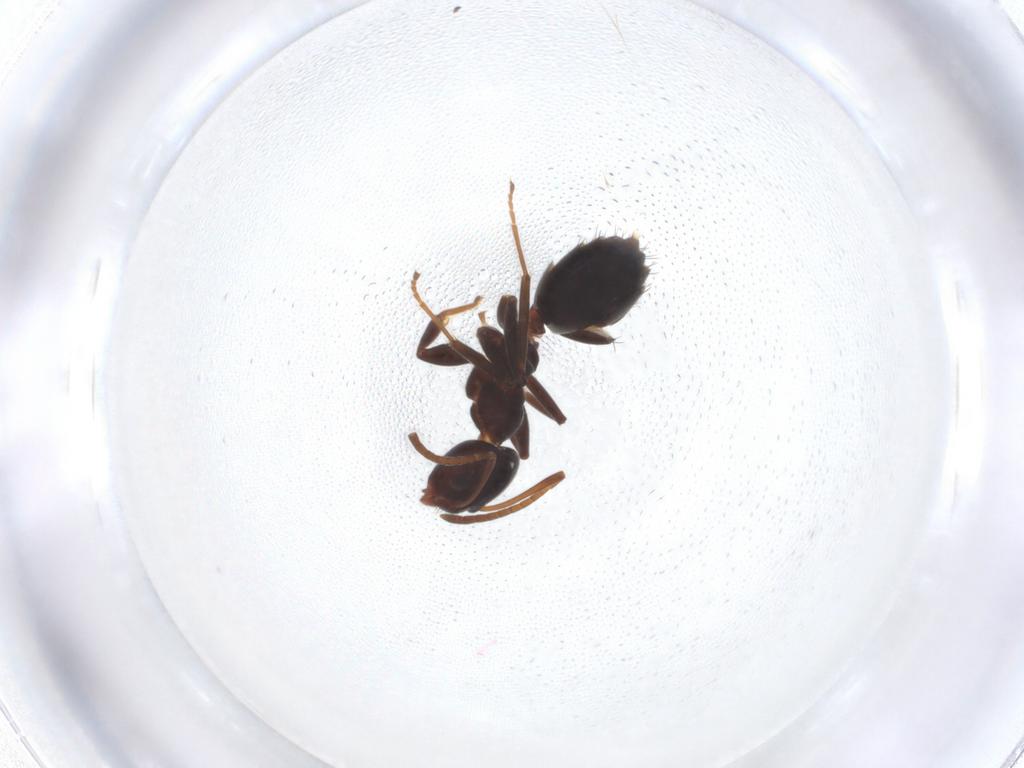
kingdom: Animalia
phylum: Arthropoda
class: Insecta
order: Hymenoptera
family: Formicidae
